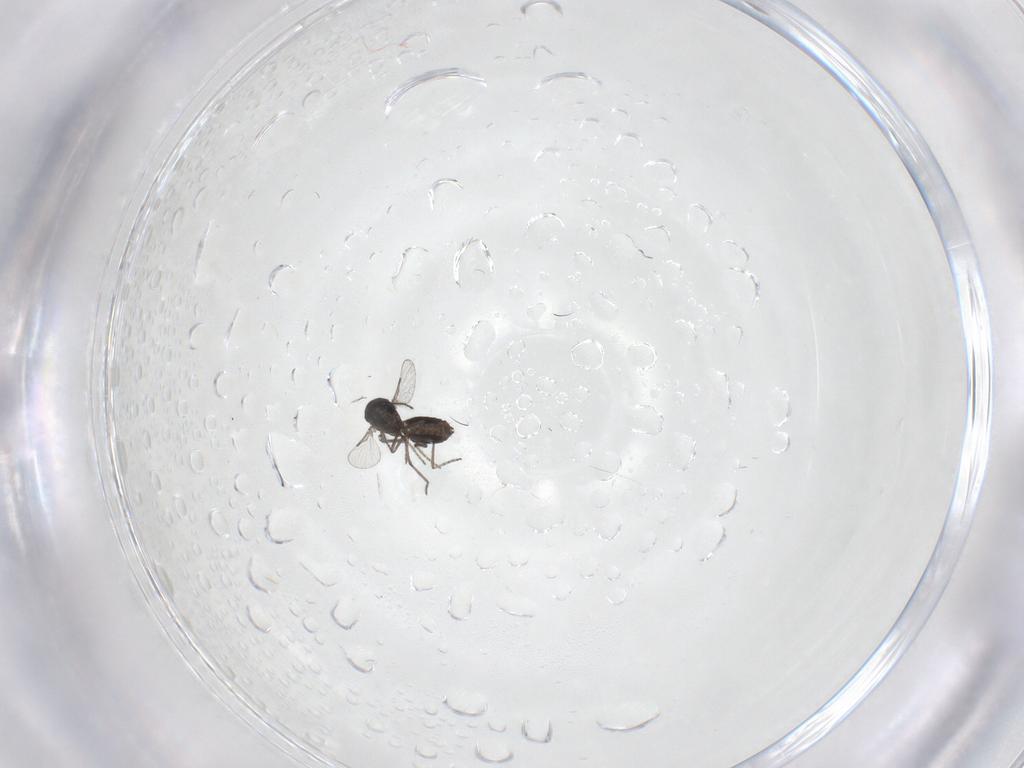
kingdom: Animalia
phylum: Arthropoda
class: Insecta
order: Diptera
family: Ceratopogonidae
